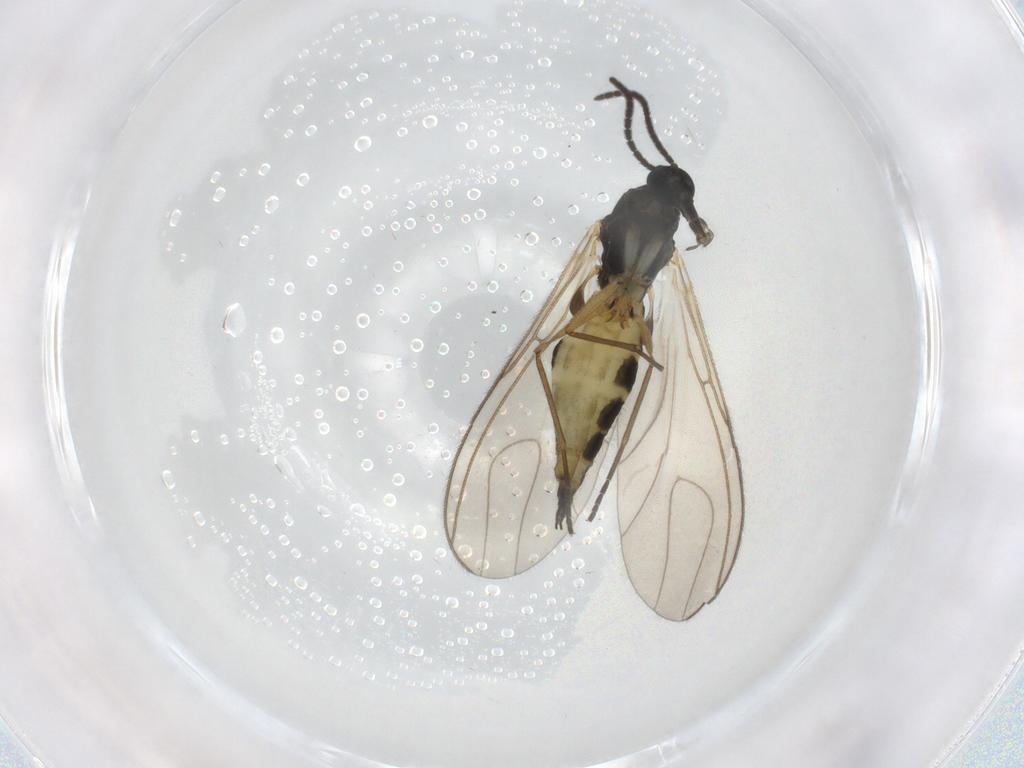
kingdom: Animalia
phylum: Arthropoda
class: Insecta
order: Diptera
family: Sciaridae
